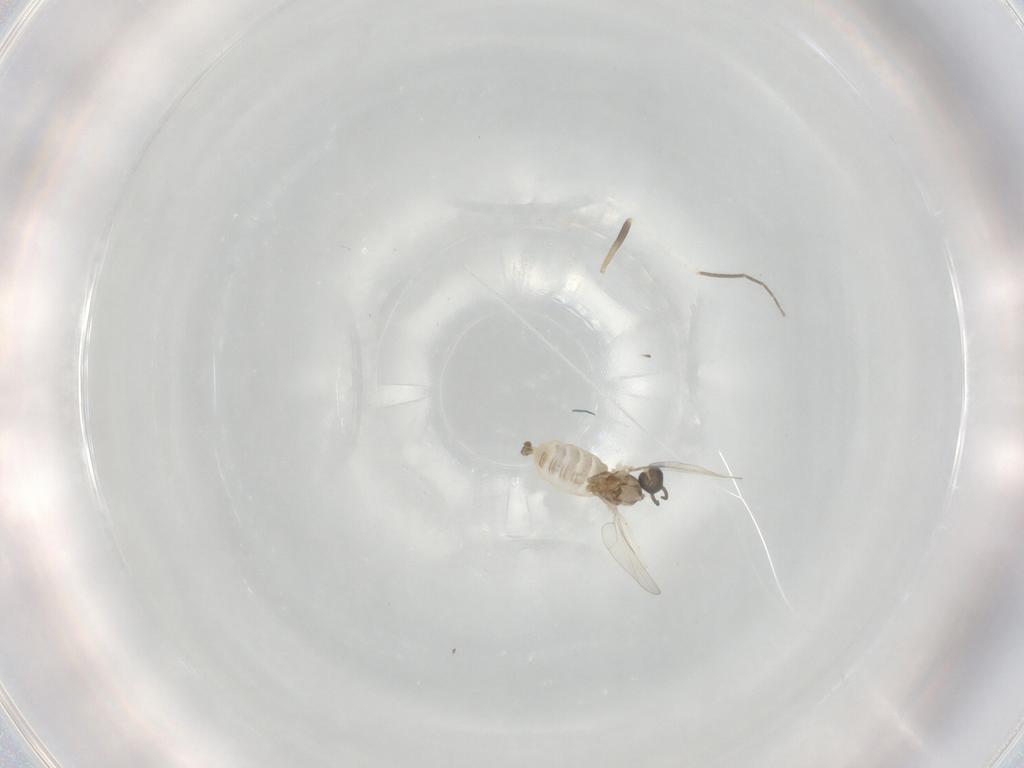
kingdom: Animalia
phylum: Arthropoda
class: Insecta
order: Diptera
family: Cecidomyiidae
